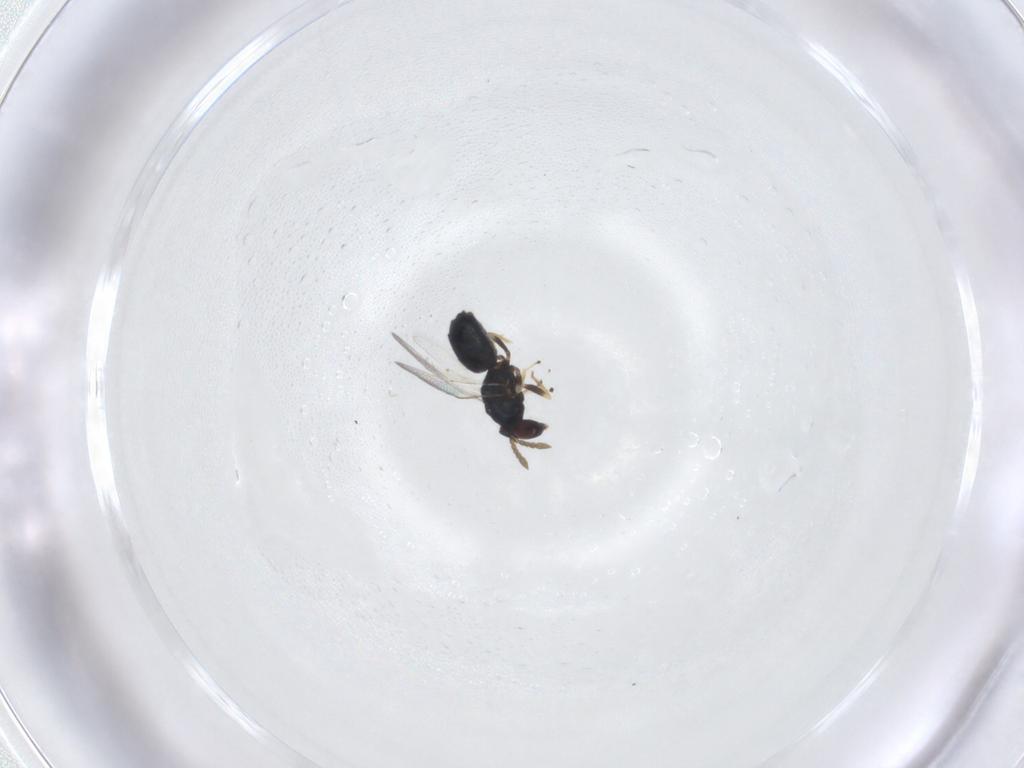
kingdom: Animalia
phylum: Arthropoda
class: Insecta
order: Hymenoptera
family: Eulophidae
